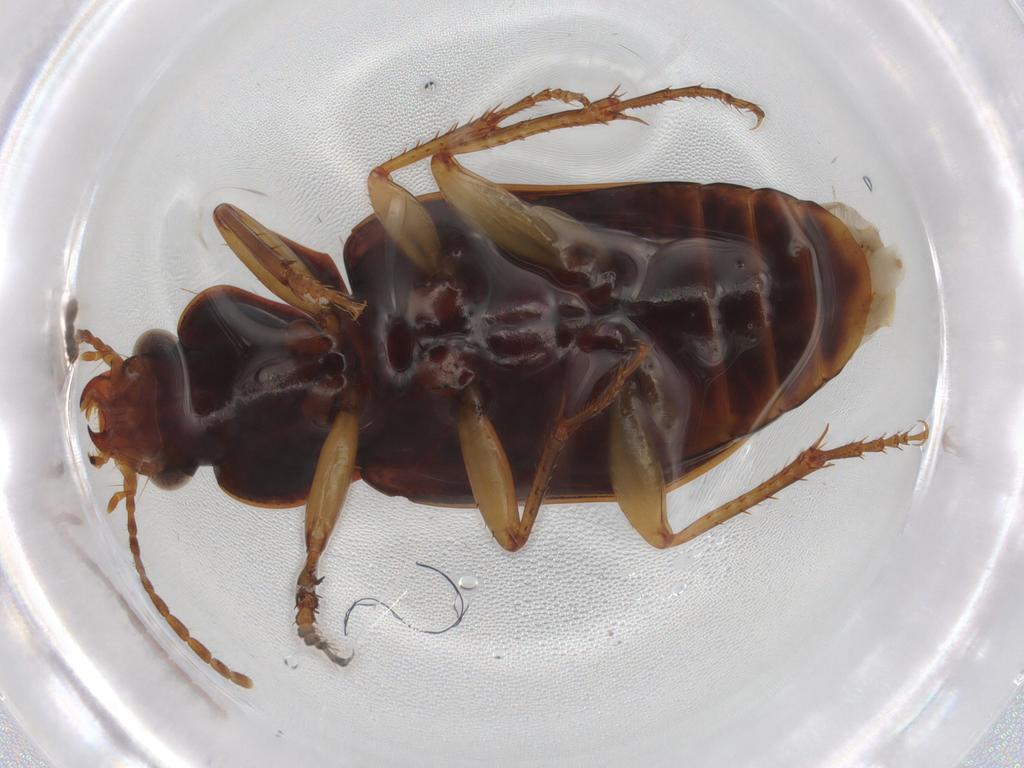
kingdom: Animalia
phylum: Arthropoda
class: Insecta
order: Coleoptera
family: Carabidae
